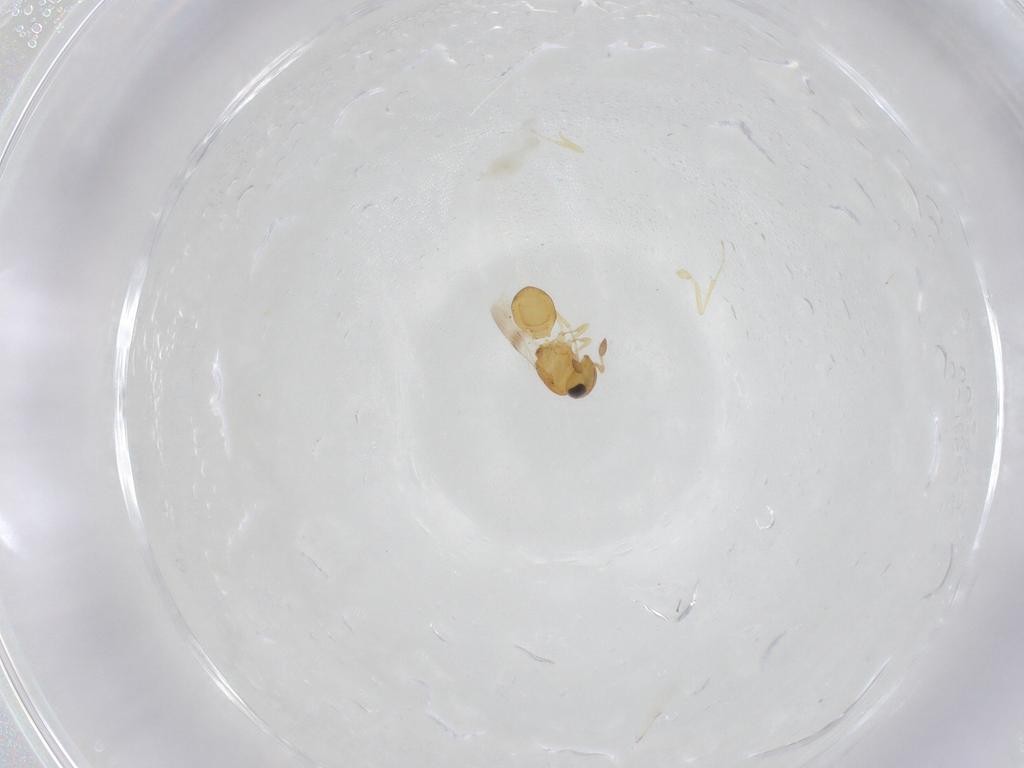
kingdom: Animalia
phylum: Arthropoda
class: Insecta
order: Hymenoptera
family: Scelionidae
